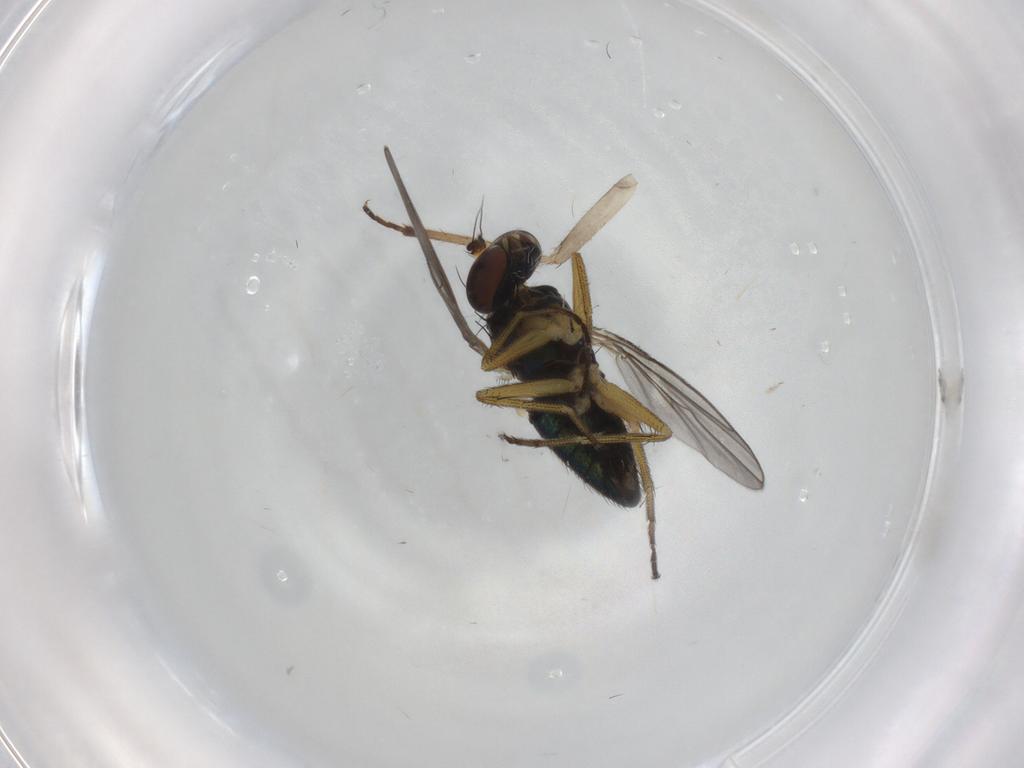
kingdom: Animalia
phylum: Arthropoda
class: Insecta
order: Diptera
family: Dolichopodidae
